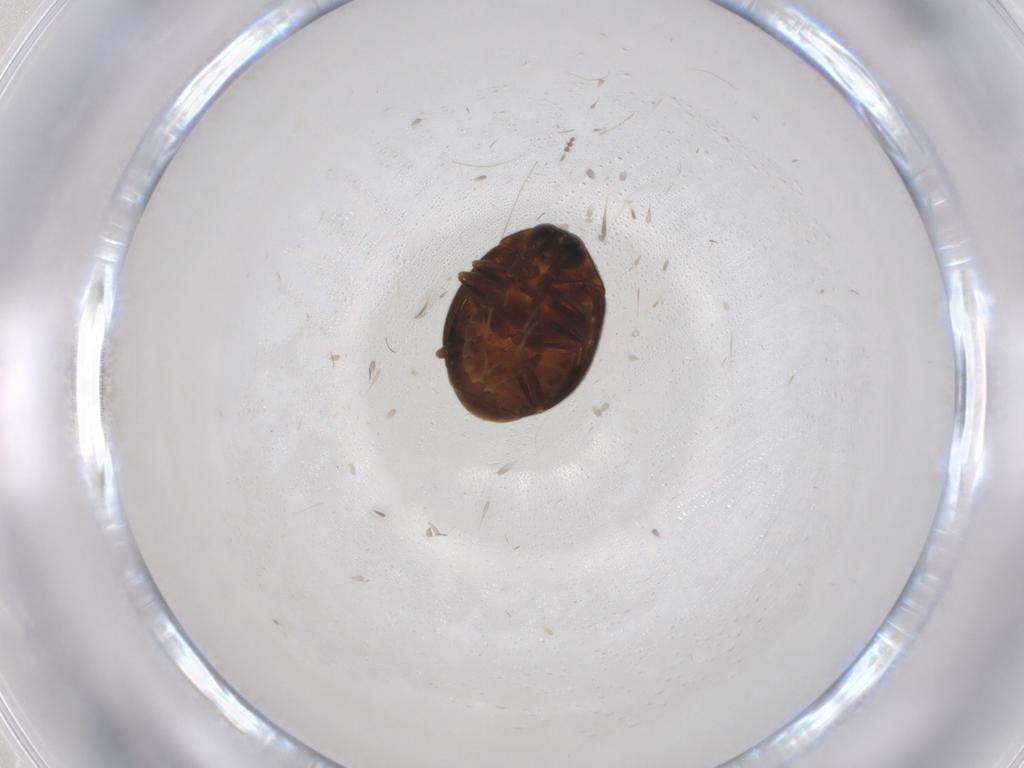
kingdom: Animalia
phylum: Arthropoda
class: Insecta
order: Coleoptera
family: Psephenidae
